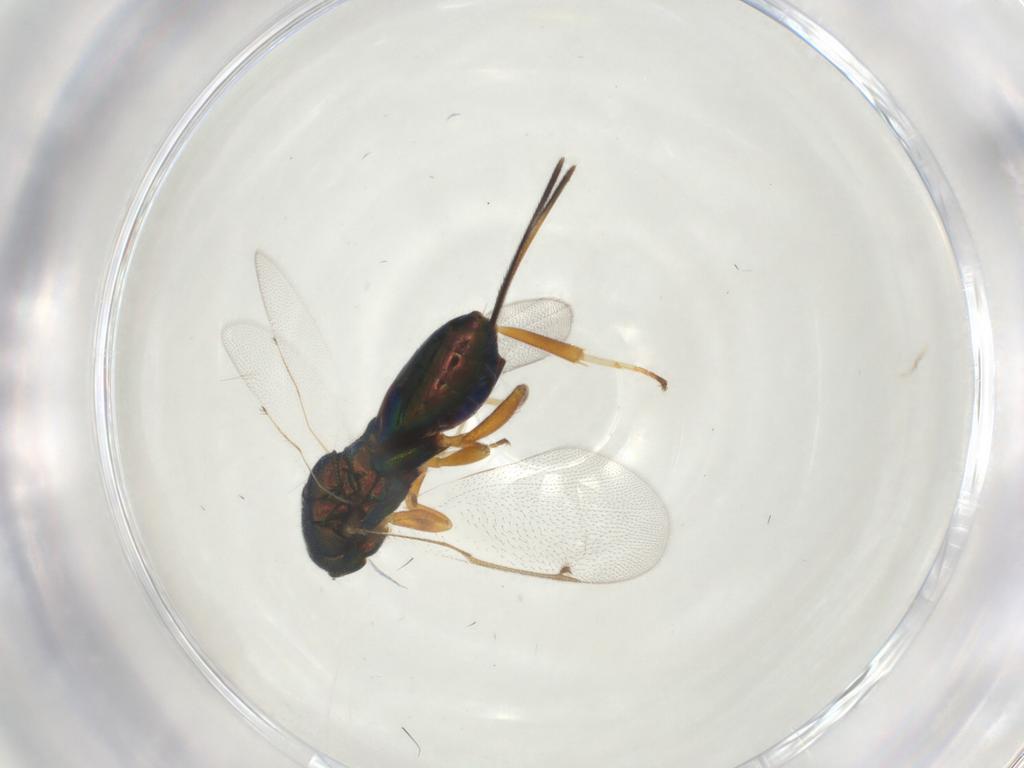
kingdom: Animalia
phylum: Arthropoda
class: Insecta
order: Hymenoptera
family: Torymidae
